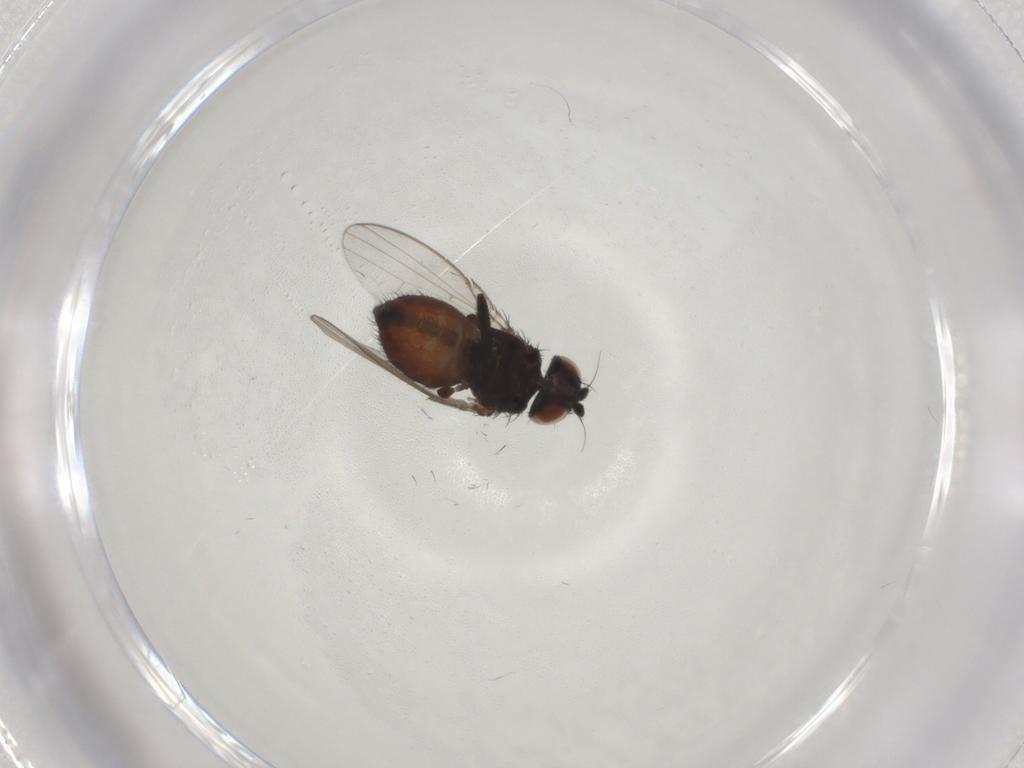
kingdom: Animalia
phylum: Arthropoda
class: Insecta
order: Diptera
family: Milichiidae
